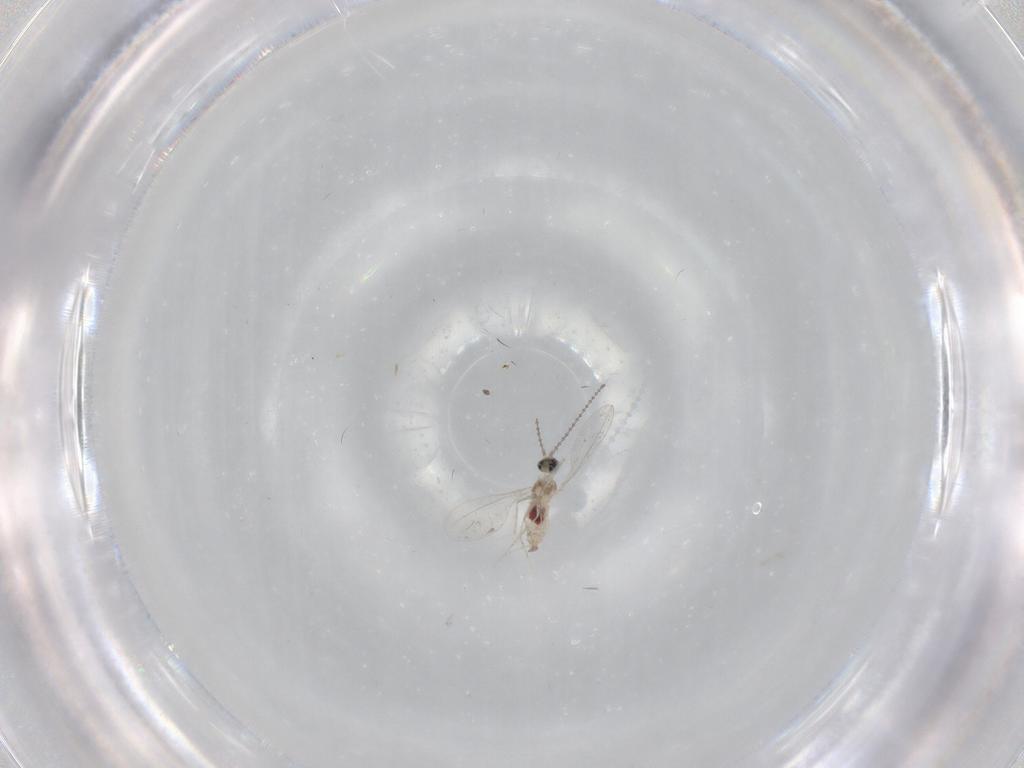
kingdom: Animalia
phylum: Arthropoda
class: Insecta
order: Diptera
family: Cecidomyiidae
